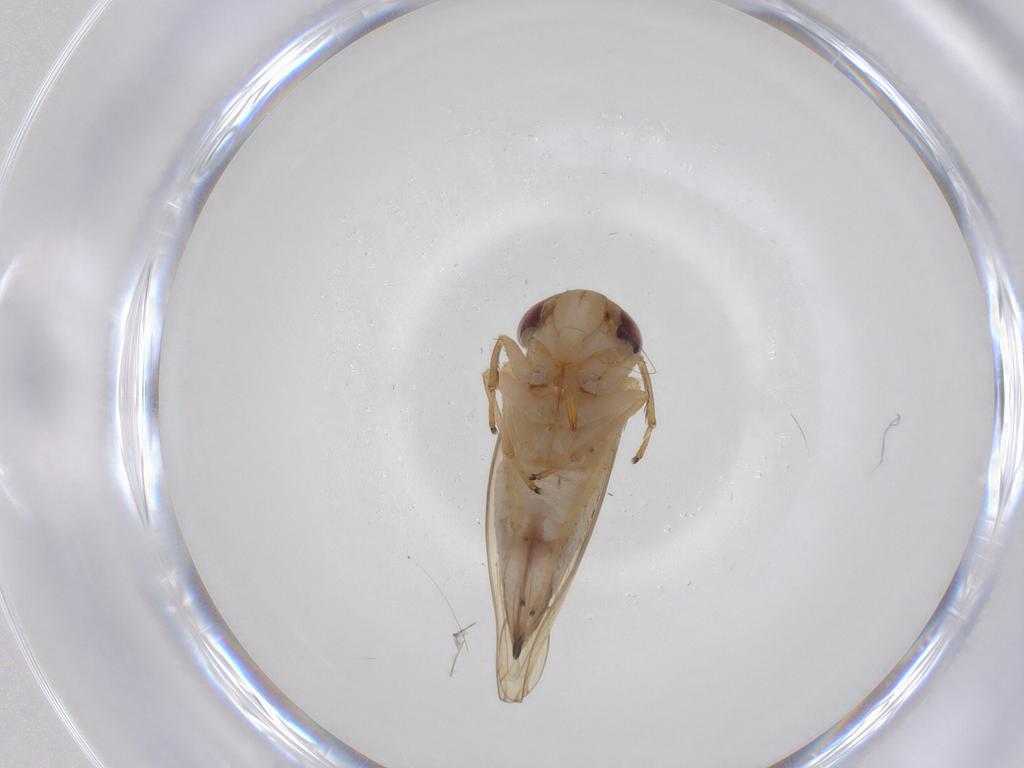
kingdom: Animalia
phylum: Arthropoda
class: Insecta
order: Hemiptera
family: Cicadellidae
